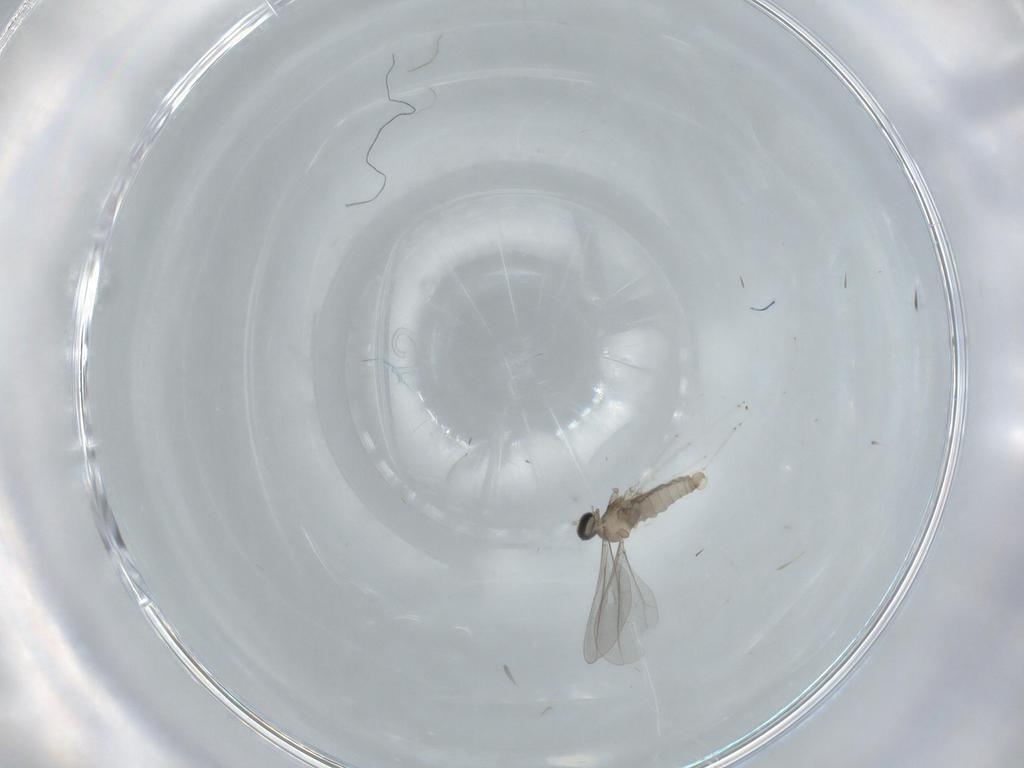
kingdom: Animalia
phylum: Arthropoda
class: Insecta
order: Diptera
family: Cecidomyiidae
